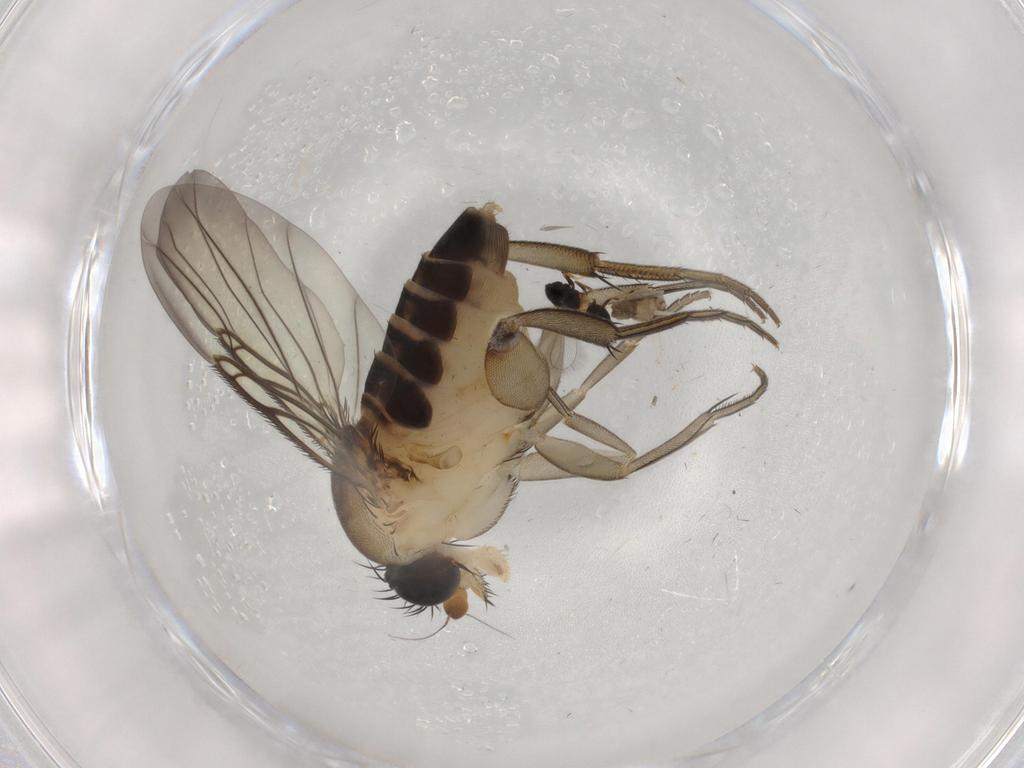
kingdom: Animalia
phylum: Arthropoda
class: Insecta
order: Diptera
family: Phoridae
